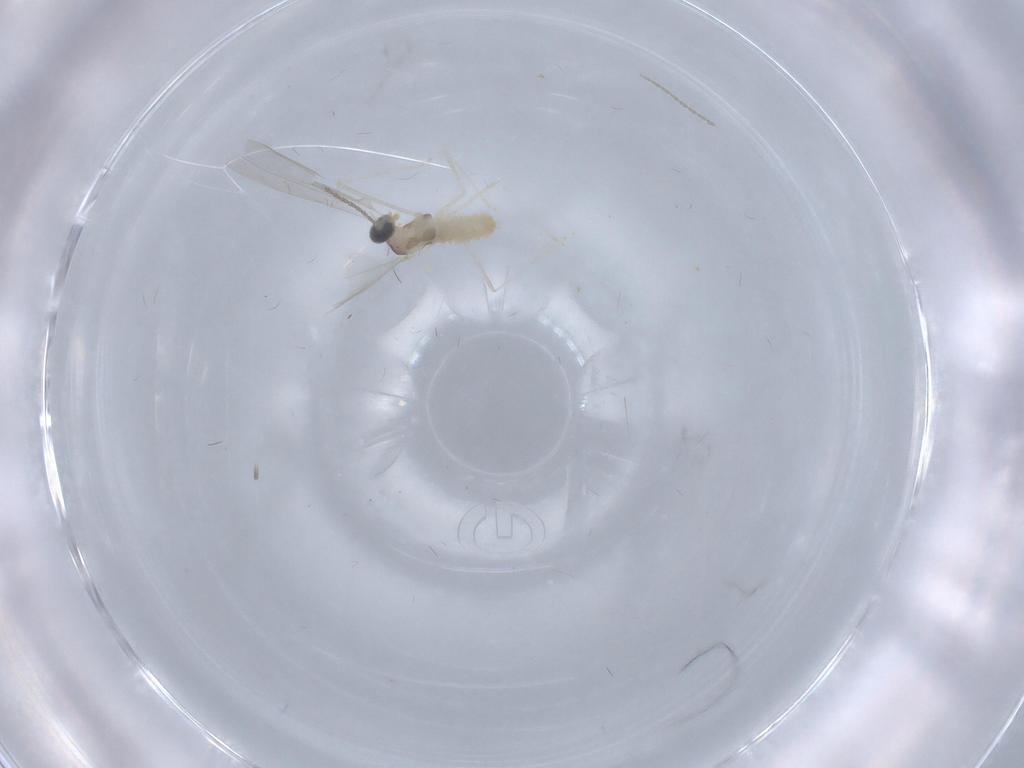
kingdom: Animalia
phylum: Arthropoda
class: Insecta
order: Diptera
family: Cecidomyiidae
